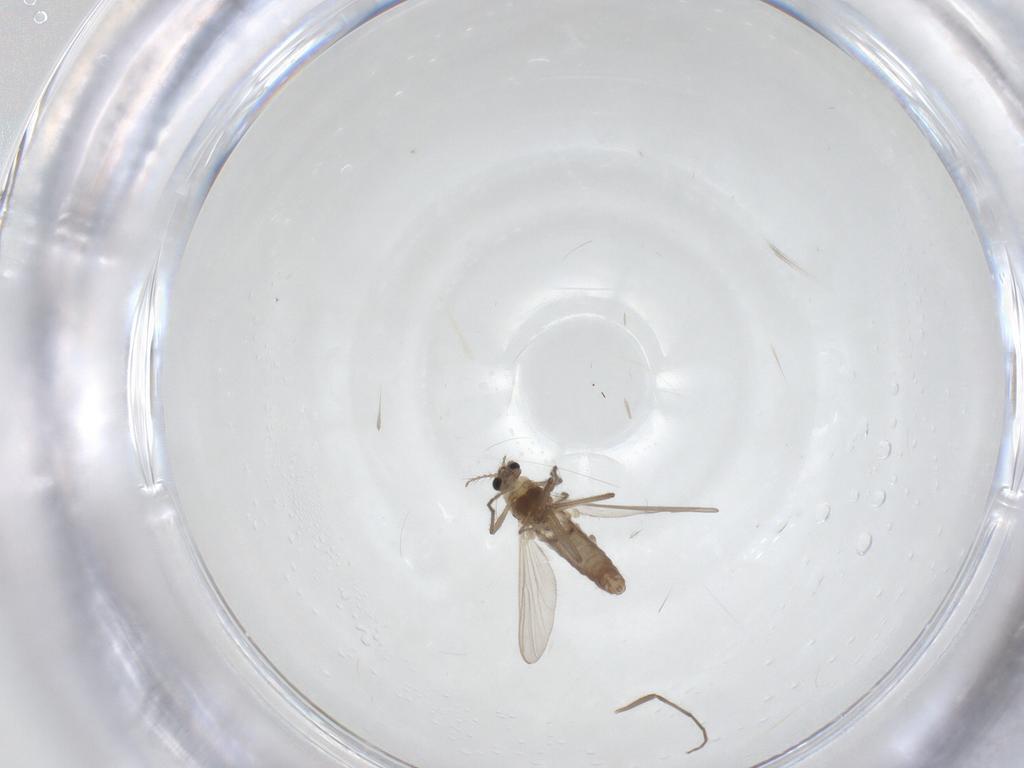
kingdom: Animalia
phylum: Arthropoda
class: Insecta
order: Diptera
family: Chironomidae
